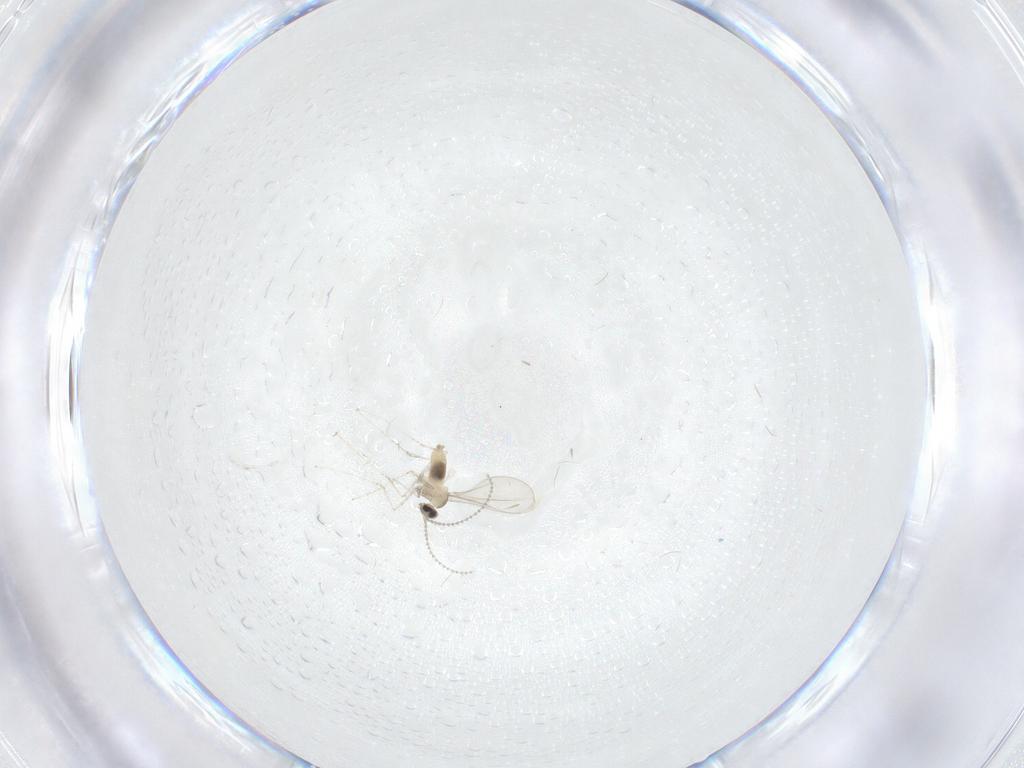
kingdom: Animalia
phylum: Arthropoda
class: Insecta
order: Diptera
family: Cecidomyiidae
